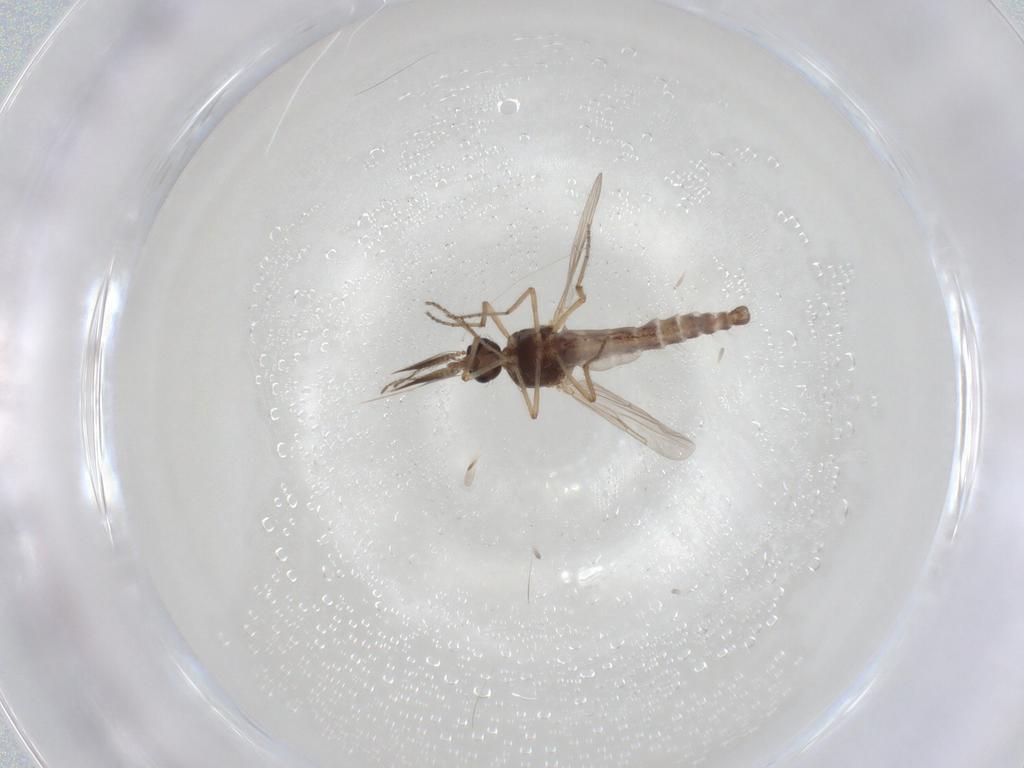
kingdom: Animalia
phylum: Arthropoda
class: Insecta
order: Diptera
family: Ceratopogonidae
